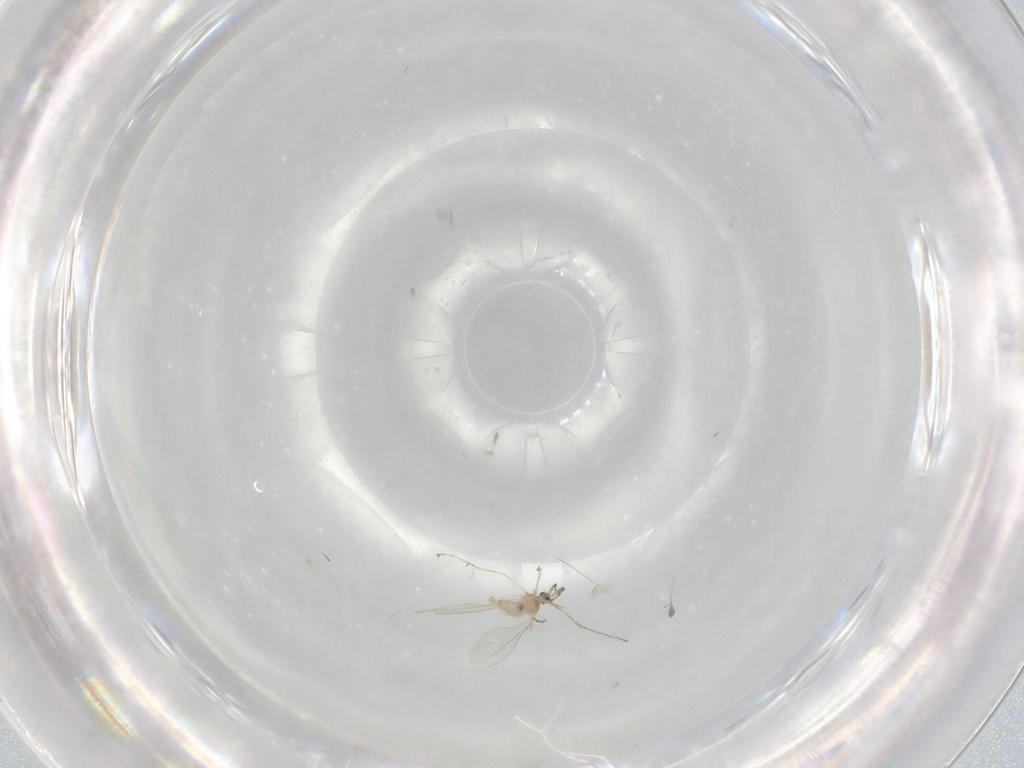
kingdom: Animalia
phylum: Arthropoda
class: Insecta
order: Diptera
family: Cecidomyiidae
